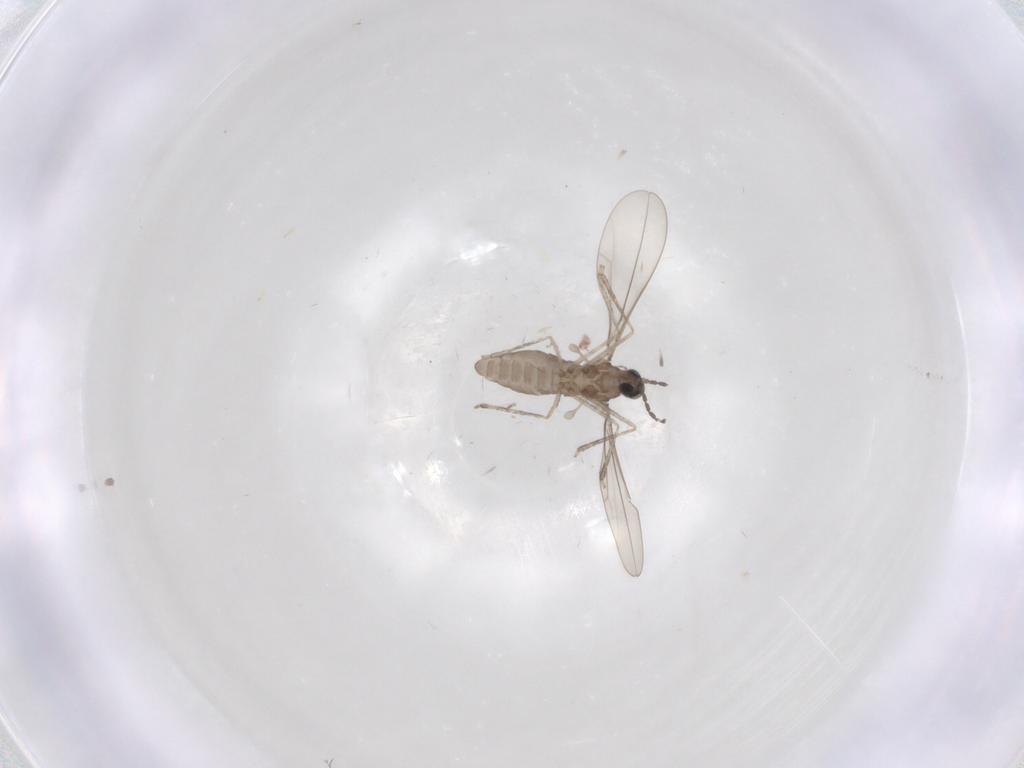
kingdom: Animalia
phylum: Arthropoda
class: Insecta
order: Diptera
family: Cecidomyiidae
